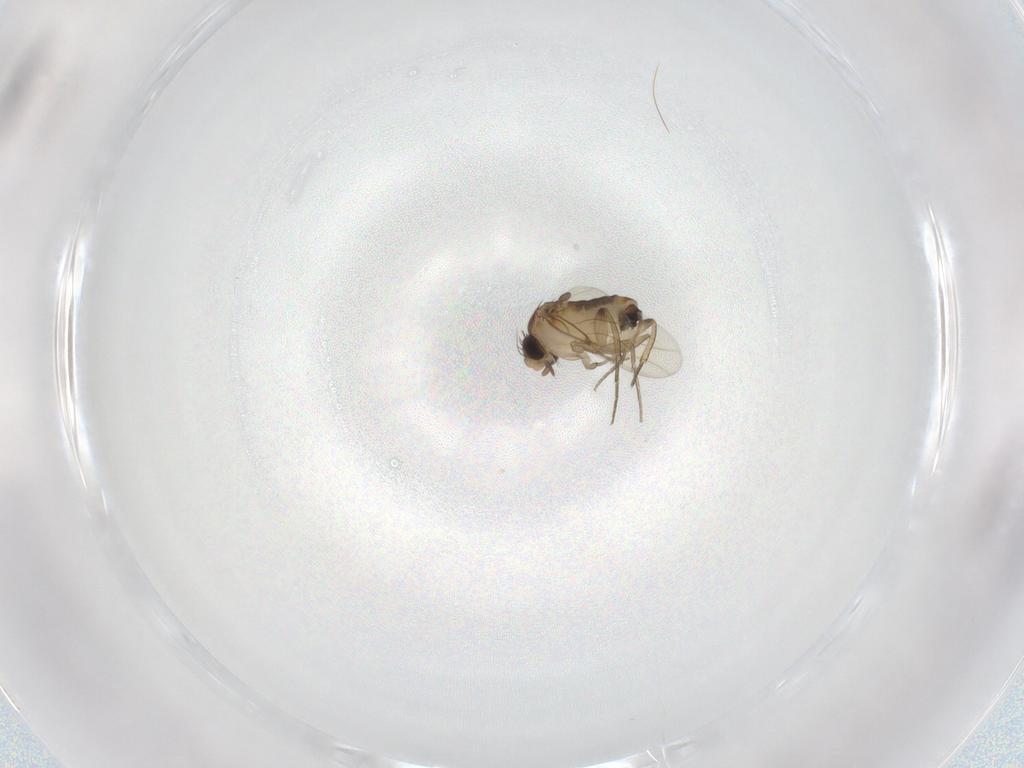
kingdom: Animalia
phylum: Arthropoda
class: Insecta
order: Diptera
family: Phoridae
